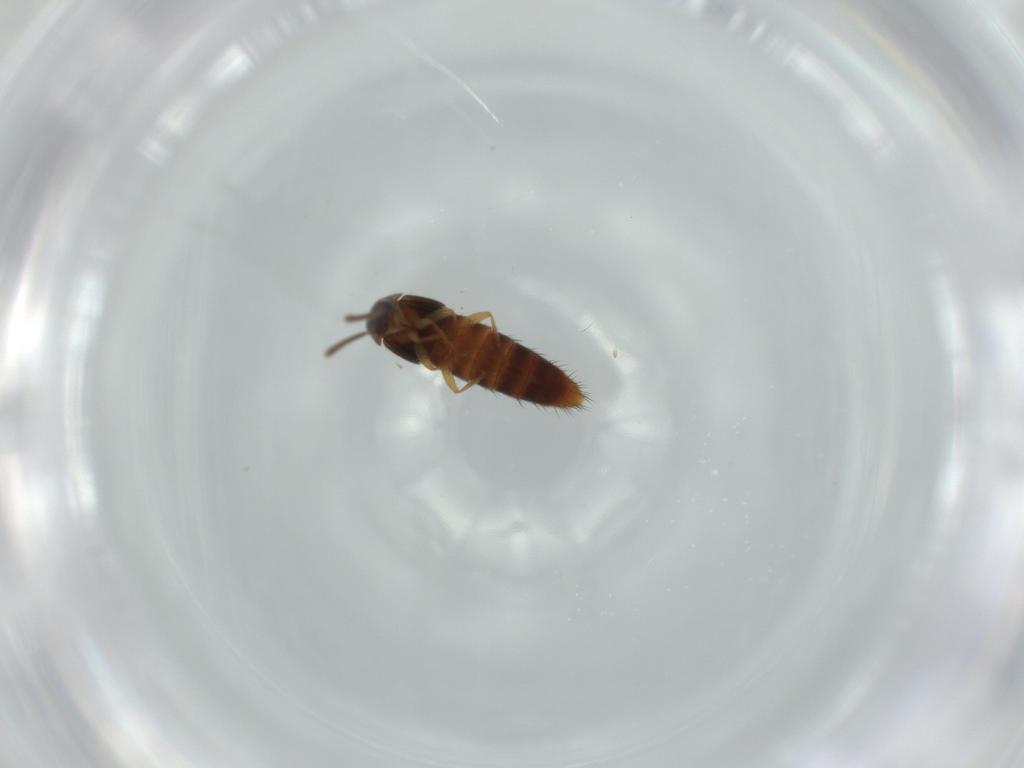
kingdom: Animalia
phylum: Arthropoda
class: Insecta
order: Coleoptera
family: Staphylinidae
